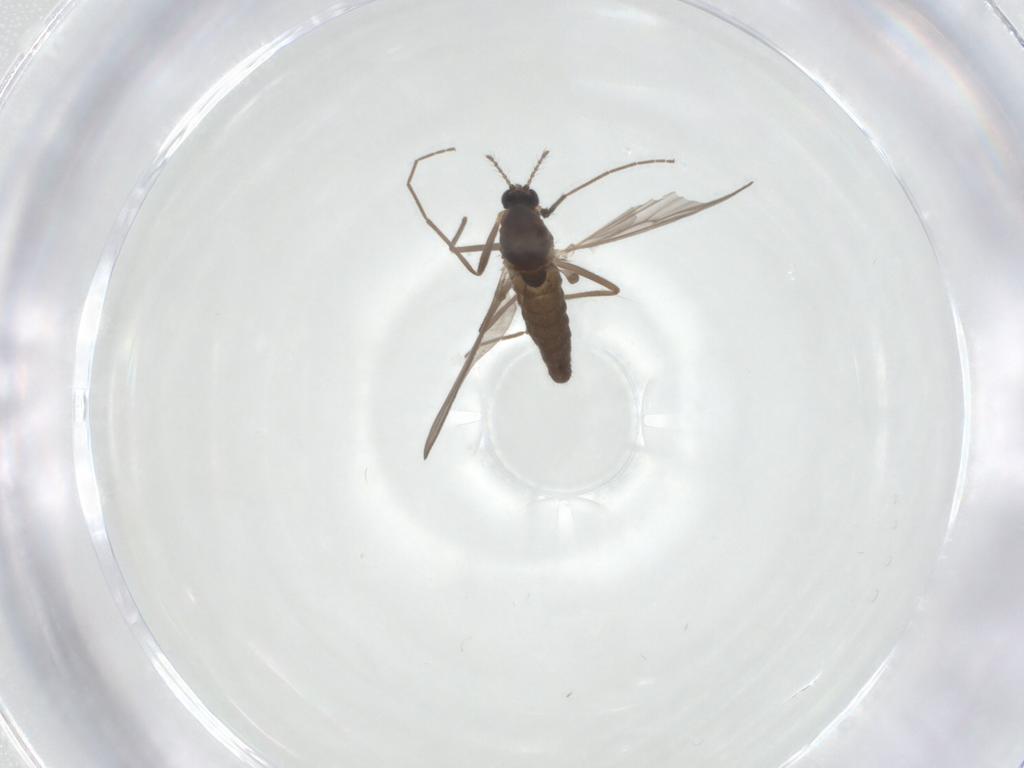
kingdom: Animalia
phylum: Arthropoda
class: Insecta
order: Diptera
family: Chironomidae
